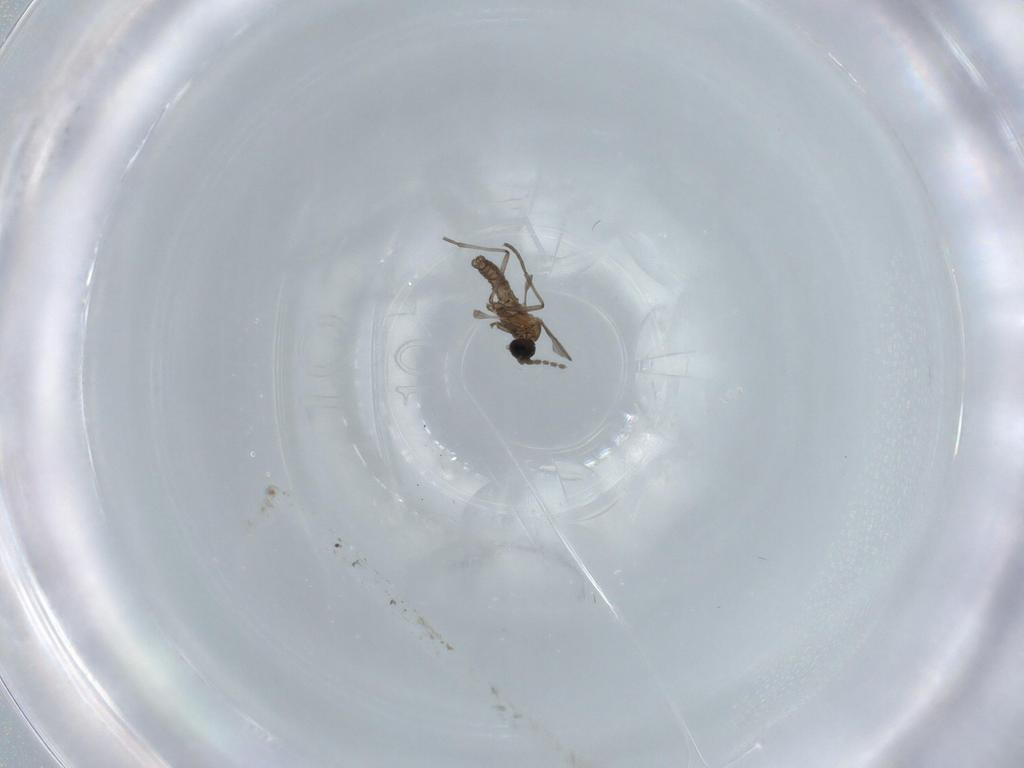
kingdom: Animalia
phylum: Arthropoda
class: Insecta
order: Diptera
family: Sciaridae
